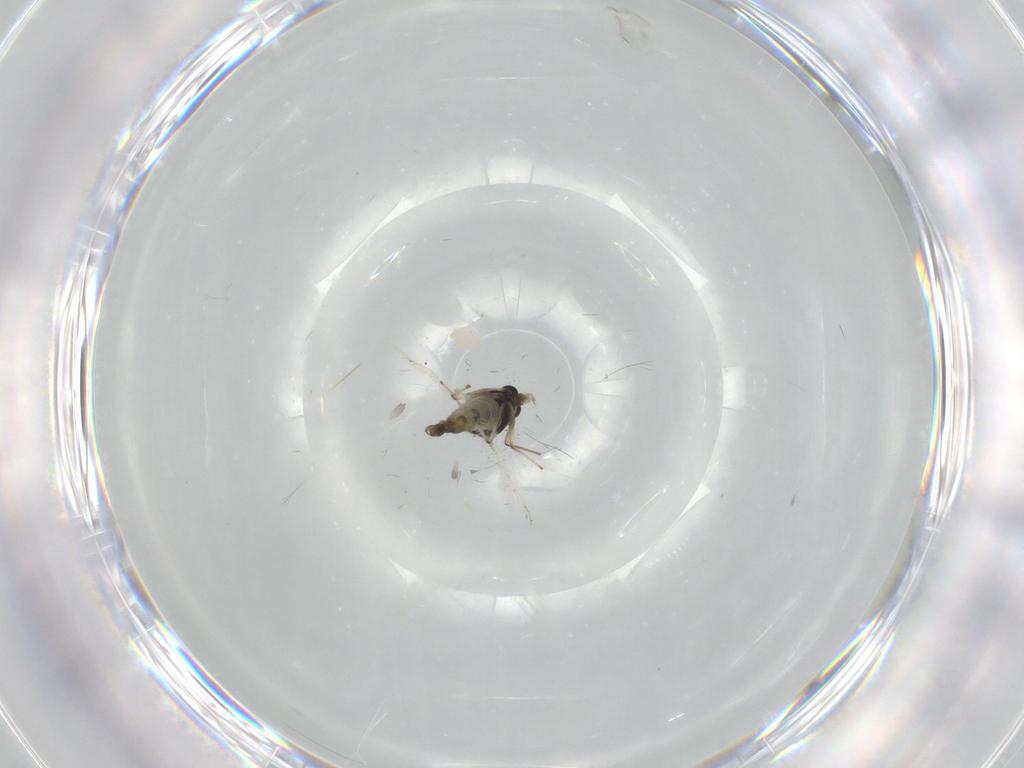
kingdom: Animalia
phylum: Arthropoda
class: Insecta
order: Diptera
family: Chironomidae
